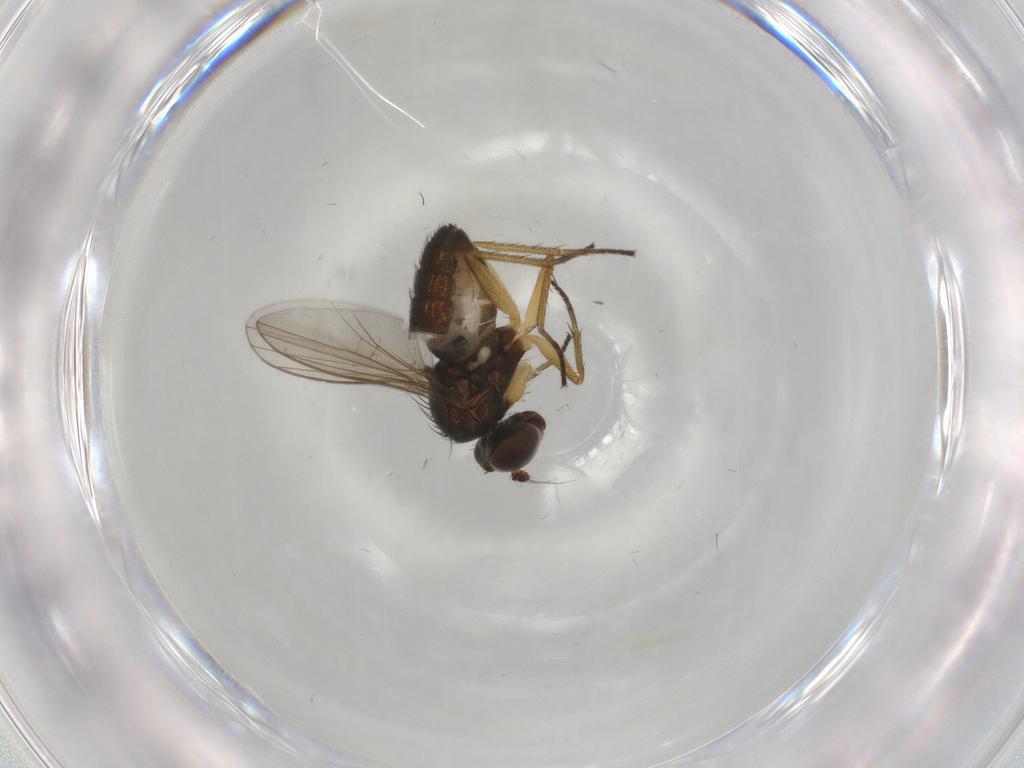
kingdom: Animalia
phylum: Arthropoda
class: Insecta
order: Diptera
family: Dolichopodidae
